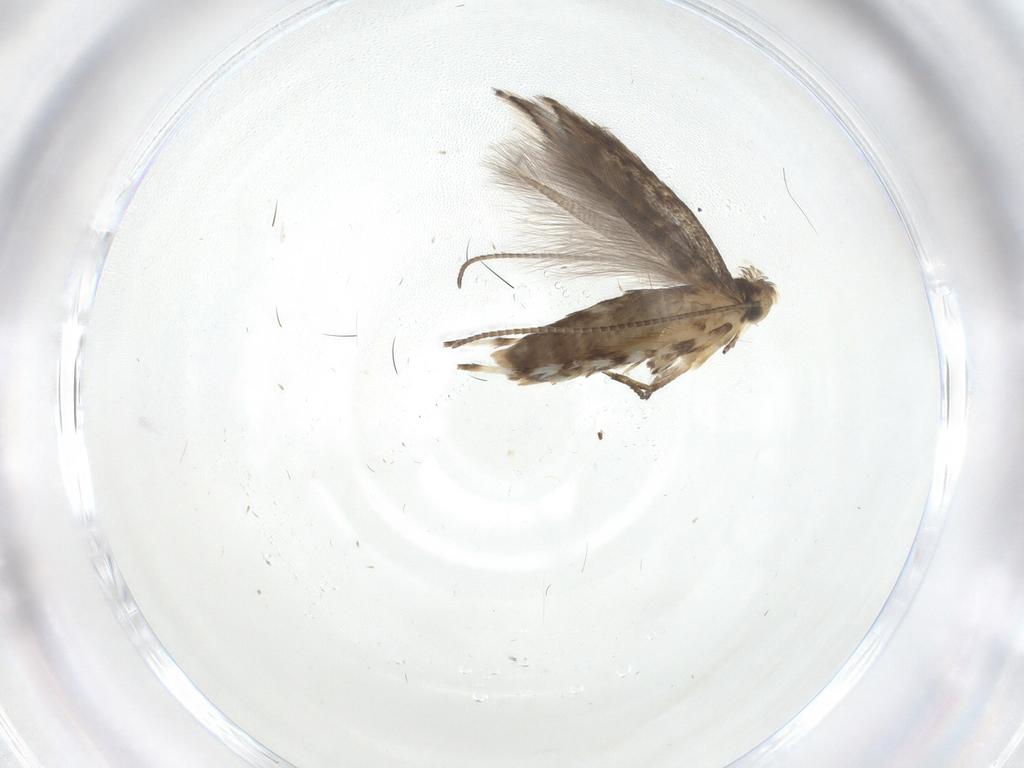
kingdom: Animalia
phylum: Arthropoda
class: Insecta
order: Lepidoptera
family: Gracillariidae
